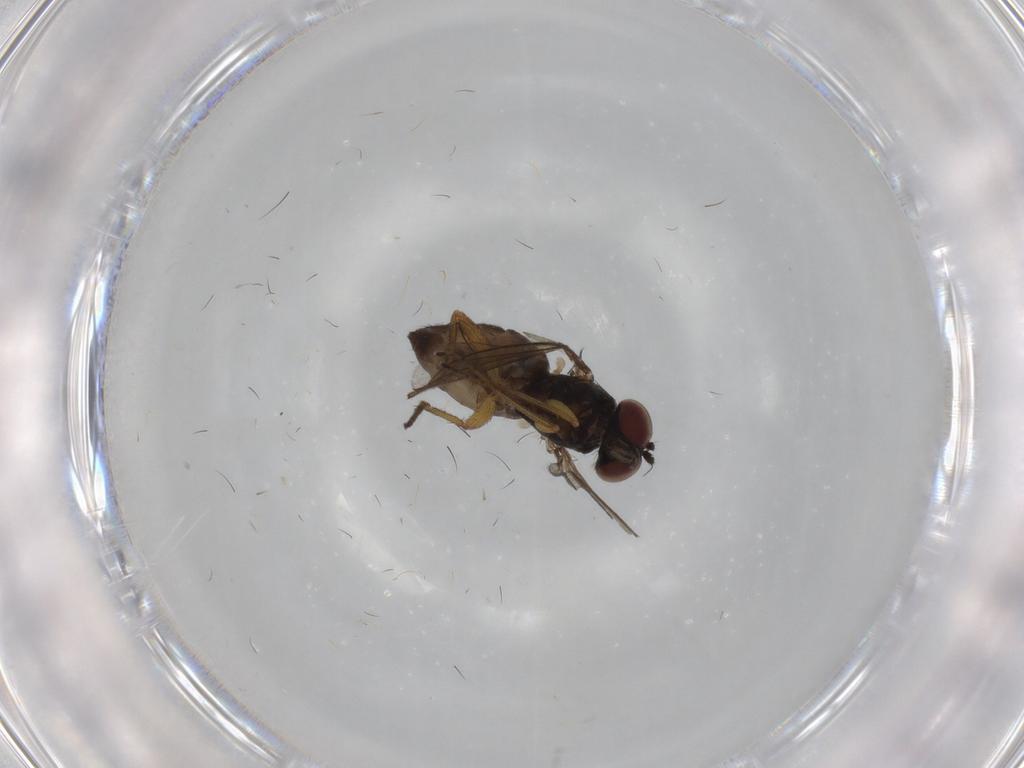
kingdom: Animalia
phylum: Arthropoda
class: Insecta
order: Diptera
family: Dolichopodidae
